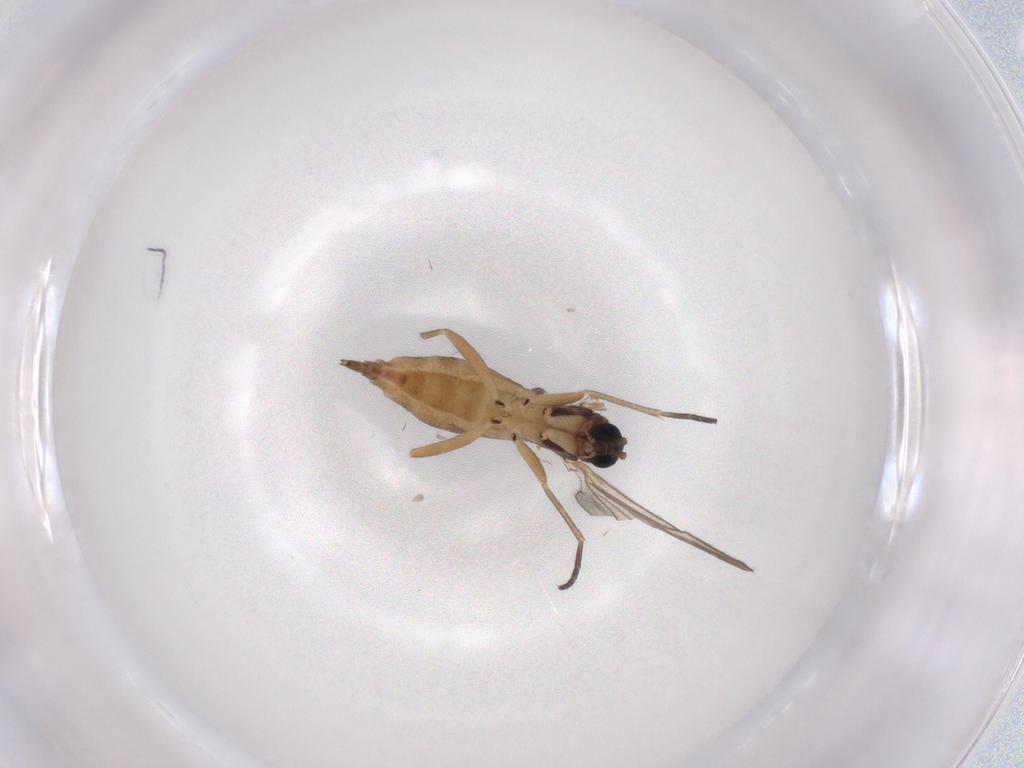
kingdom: Animalia
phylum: Arthropoda
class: Insecta
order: Diptera
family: Sciaridae
